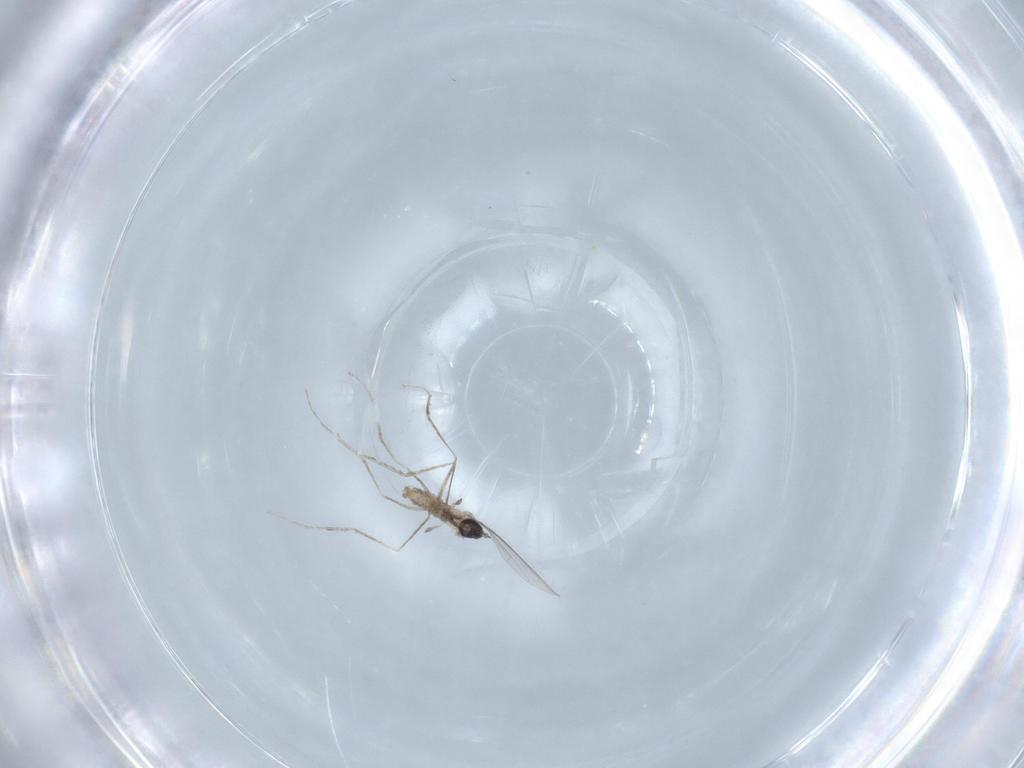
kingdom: Animalia
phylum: Arthropoda
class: Insecta
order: Diptera
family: Cecidomyiidae
